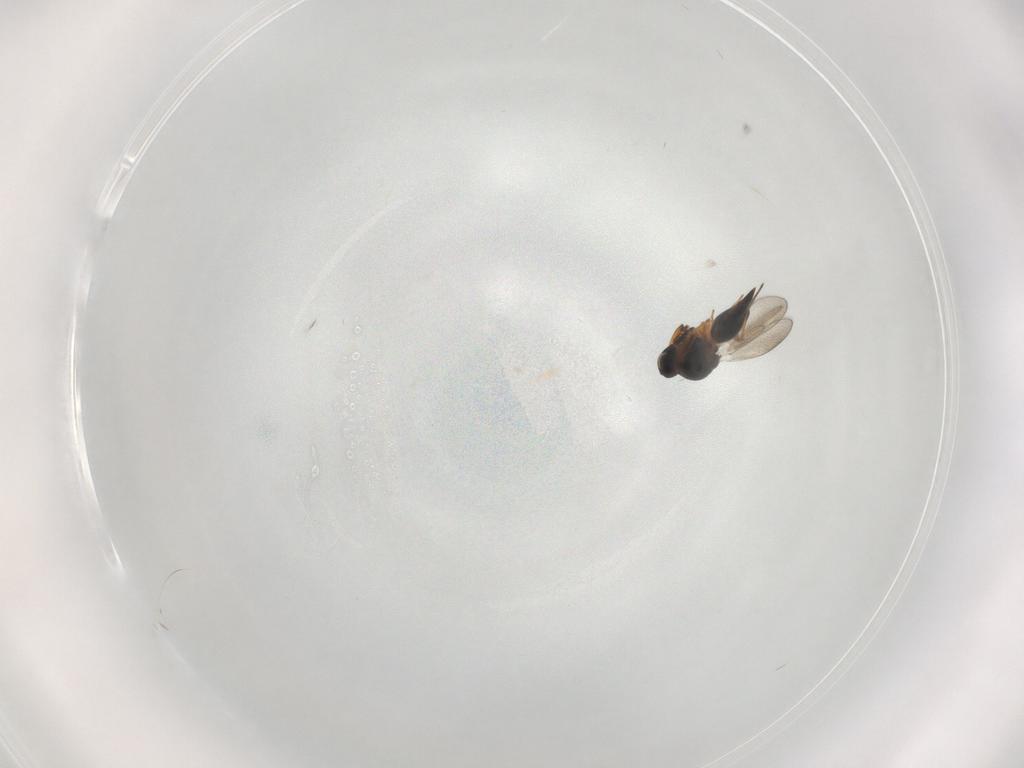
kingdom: Animalia
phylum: Arthropoda
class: Insecta
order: Hymenoptera
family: Platygastridae
